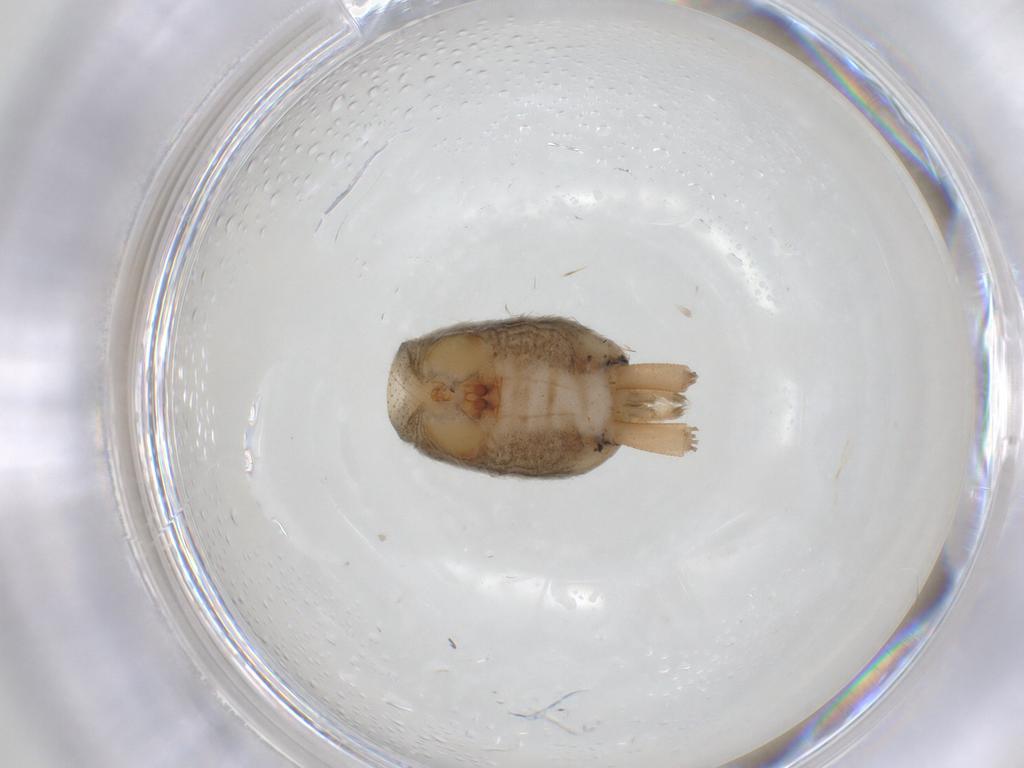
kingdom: Animalia
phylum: Arthropoda
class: Insecta
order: Diptera
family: Tachinidae
